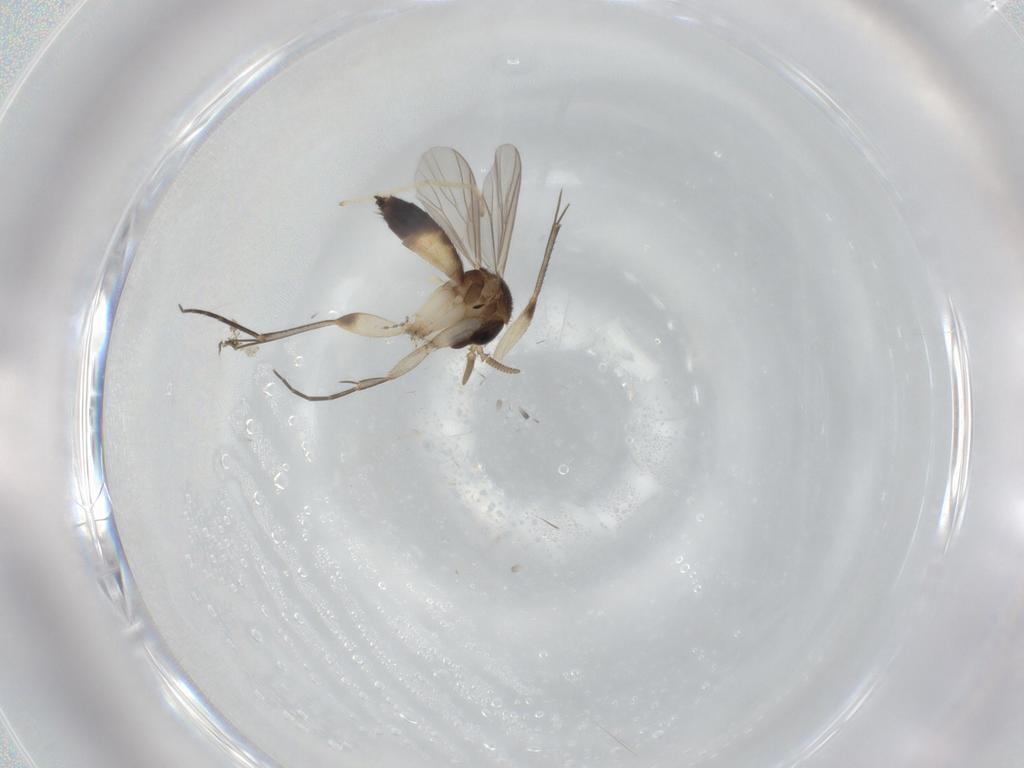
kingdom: Animalia
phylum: Arthropoda
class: Insecta
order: Diptera
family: Mycetophilidae
